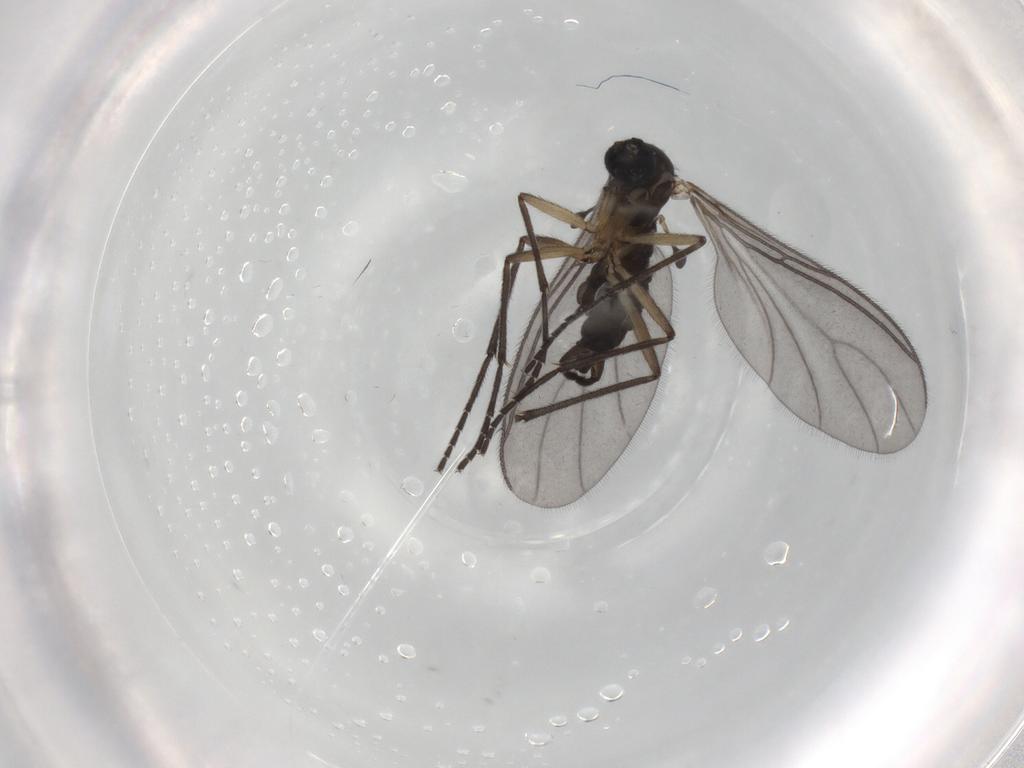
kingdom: Animalia
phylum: Arthropoda
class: Insecta
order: Diptera
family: Sciaridae
